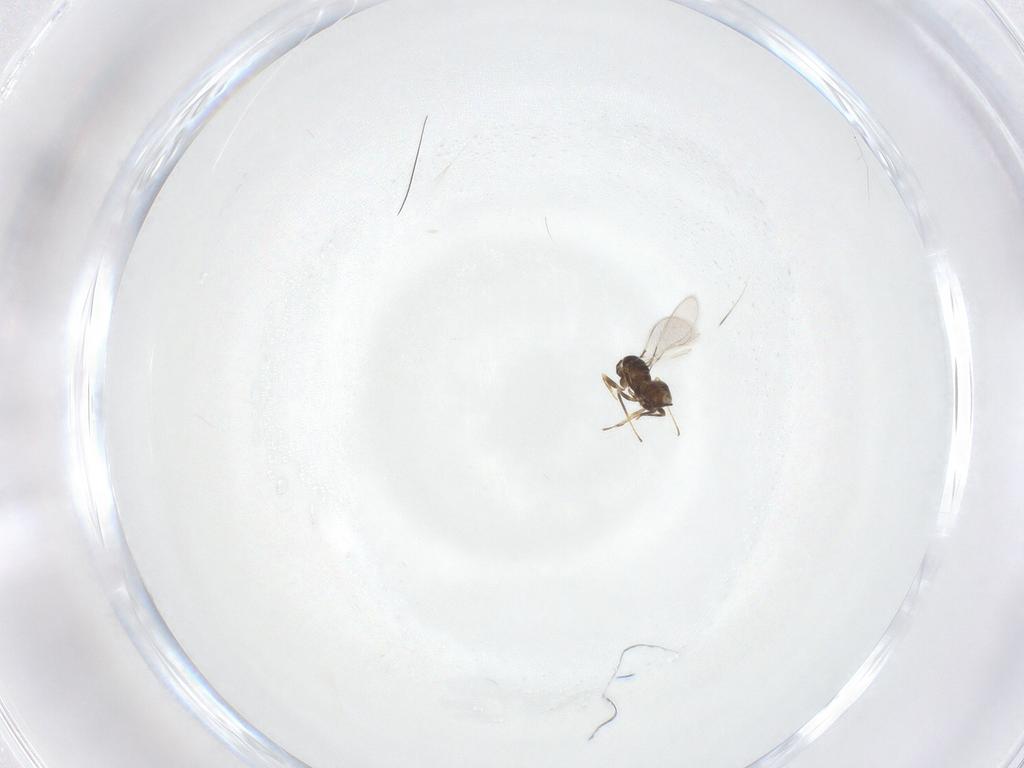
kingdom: Animalia
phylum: Arthropoda
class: Insecta
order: Hymenoptera
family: Mymaridae
